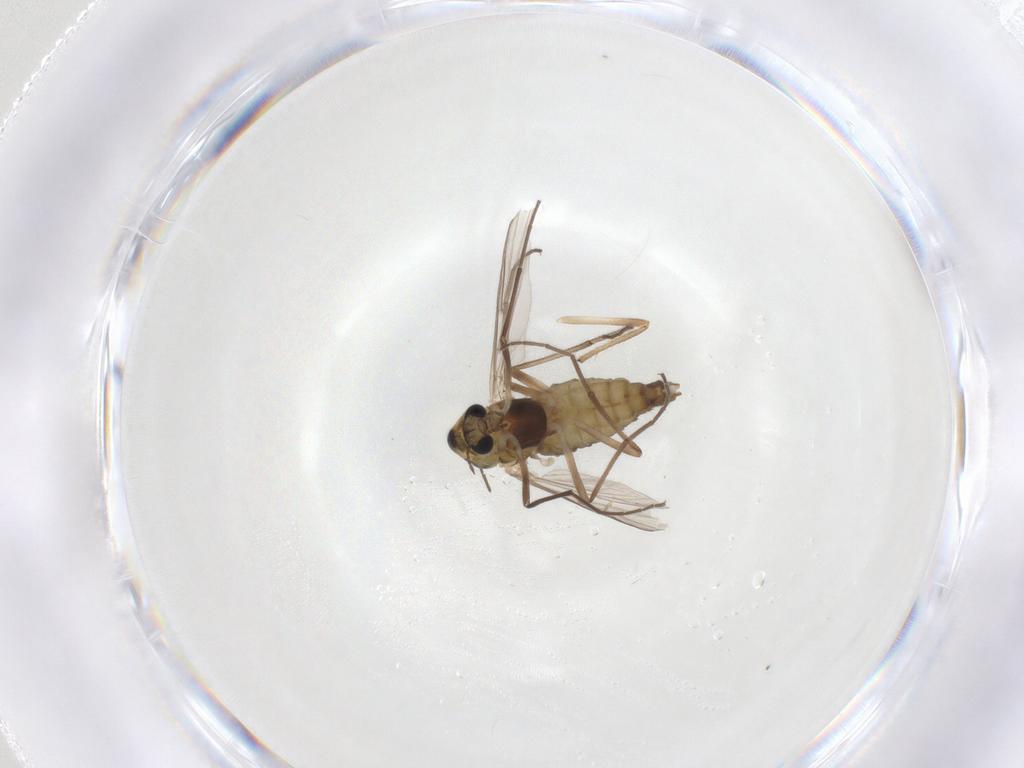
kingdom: Animalia
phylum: Arthropoda
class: Insecta
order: Diptera
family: Chironomidae
